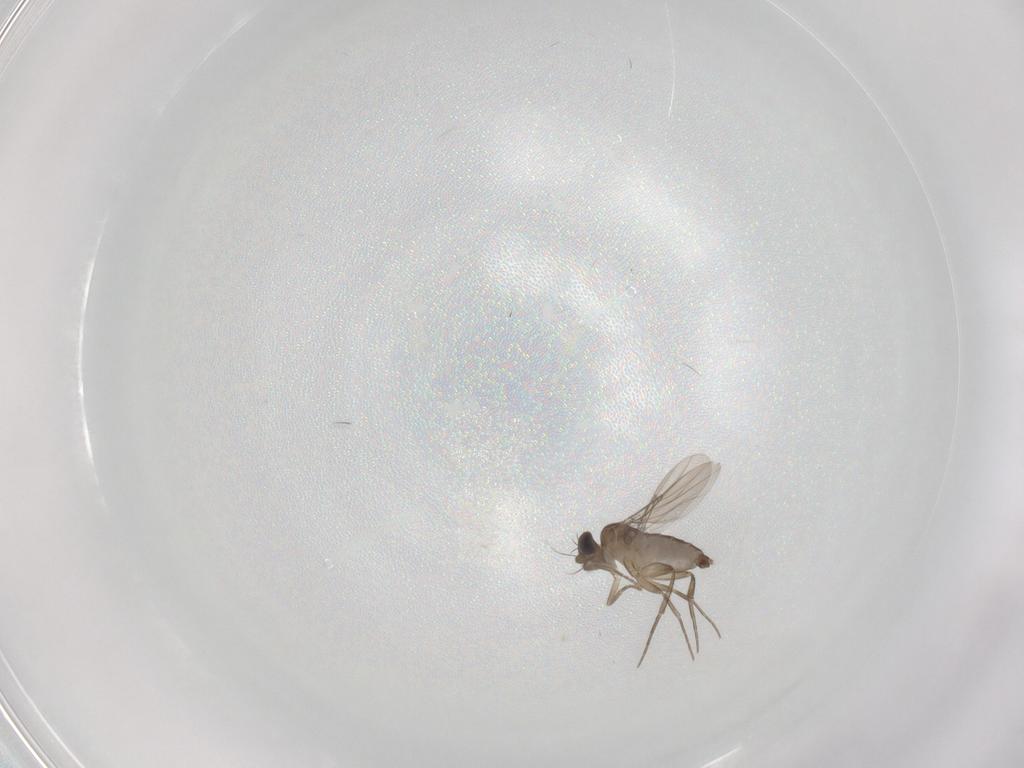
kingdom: Animalia
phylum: Arthropoda
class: Insecta
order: Diptera
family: Phoridae
